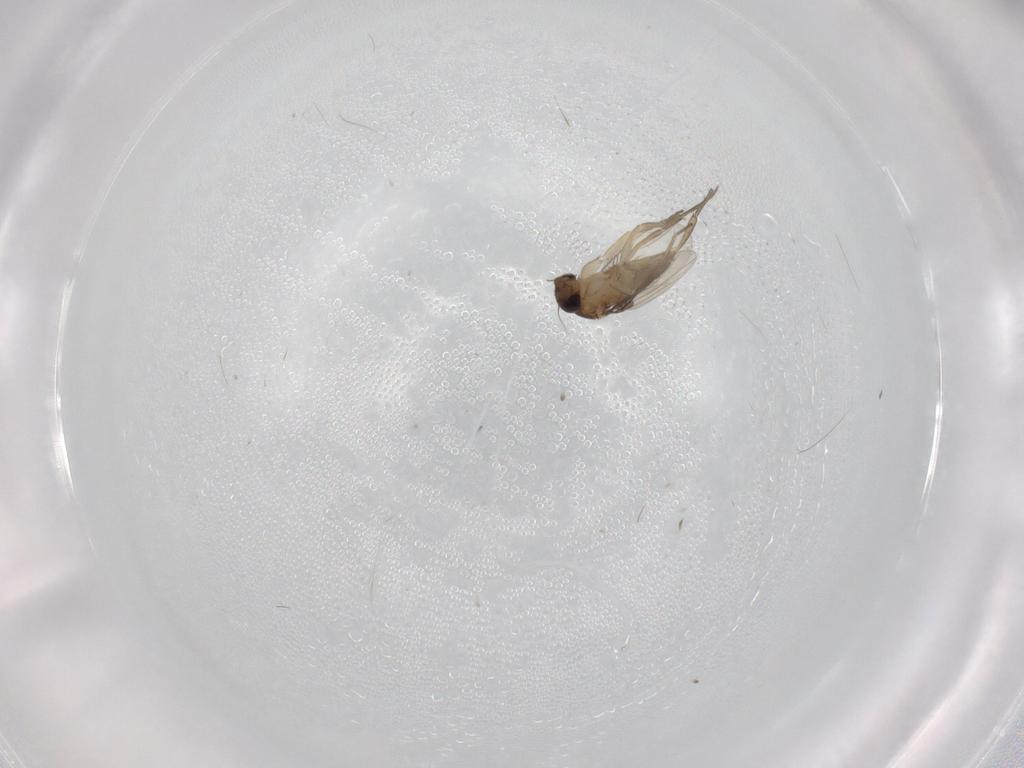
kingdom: Animalia
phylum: Arthropoda
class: Insecta
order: Diptera
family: Phoridae
